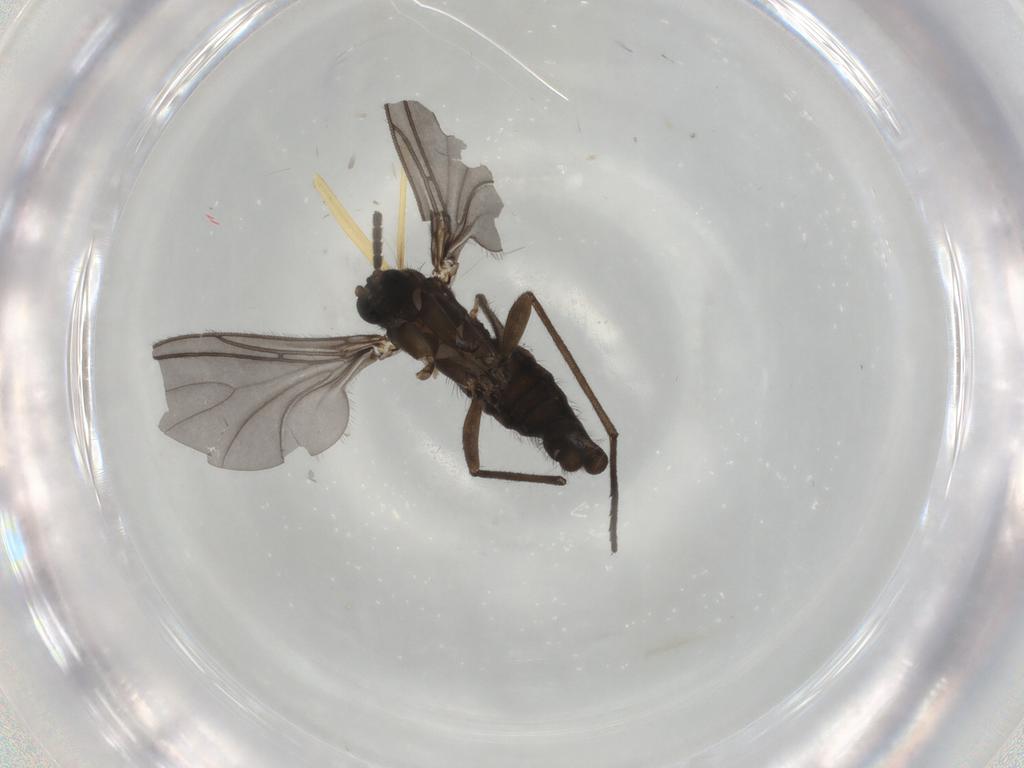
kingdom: Animalia
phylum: Arthropoda
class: Insecta
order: Diptera
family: Sciaridae
